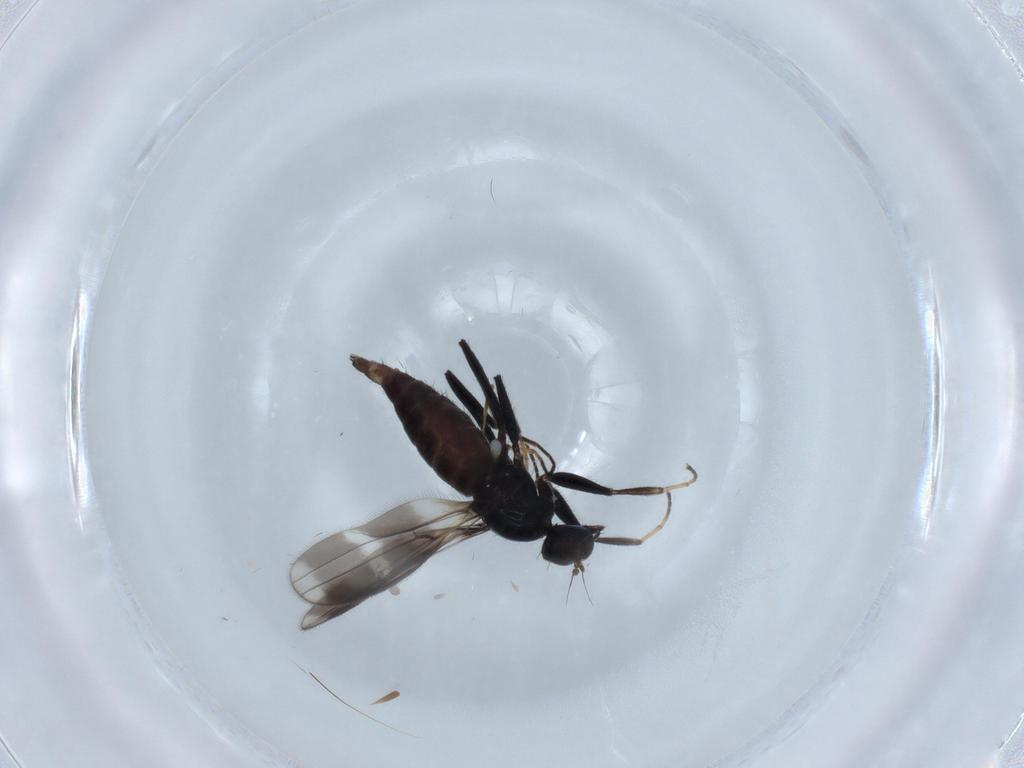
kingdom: Animalia
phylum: Arthropoda
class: Insecta
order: Diptera
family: Hybotidae
